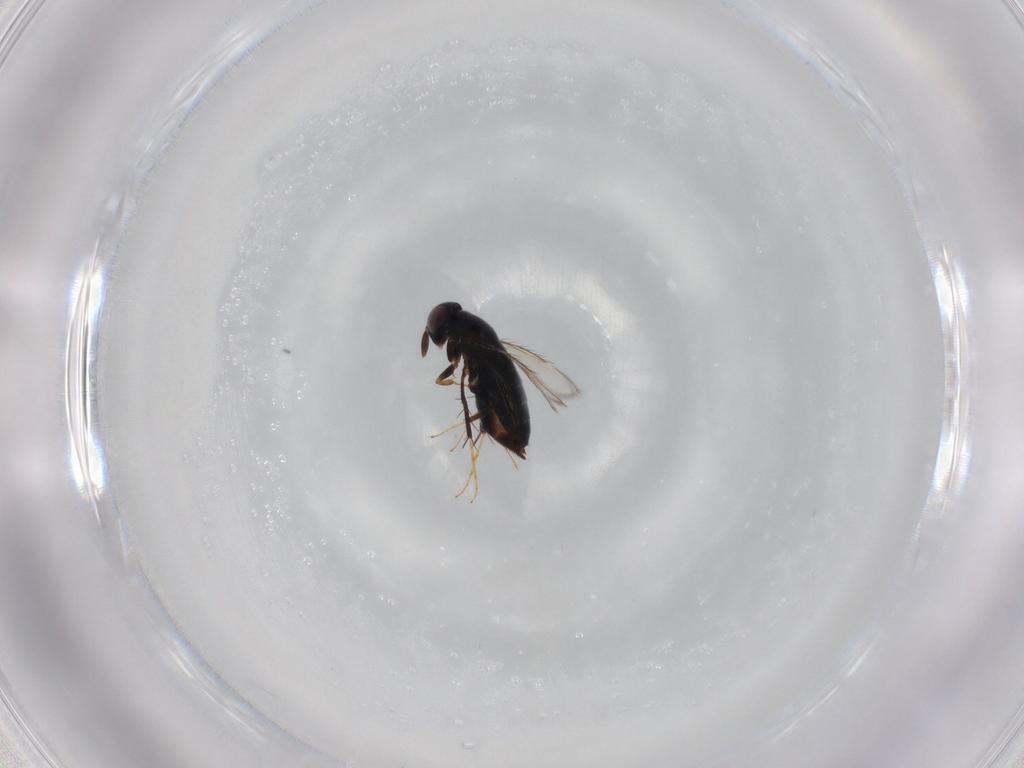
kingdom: Animalia
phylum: Arthropoda
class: Insecta
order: Hymenoptera
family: Signiphoridae
